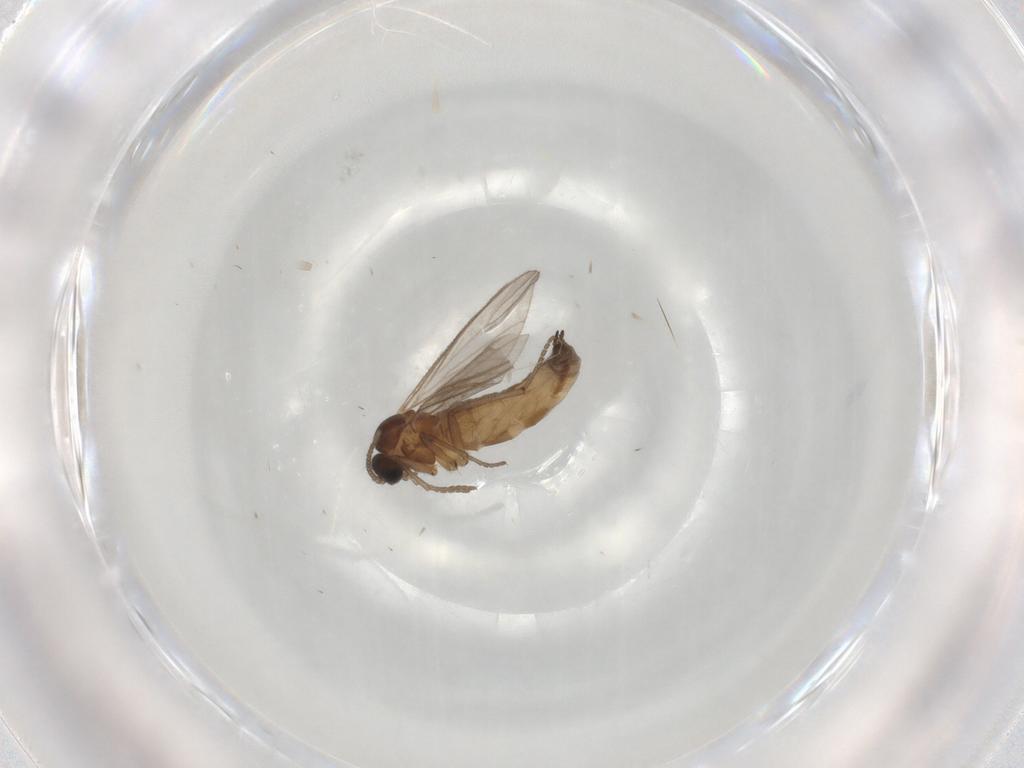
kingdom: Animalia
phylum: Arthropoda
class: Insecta
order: Diptera
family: Sciaridae
